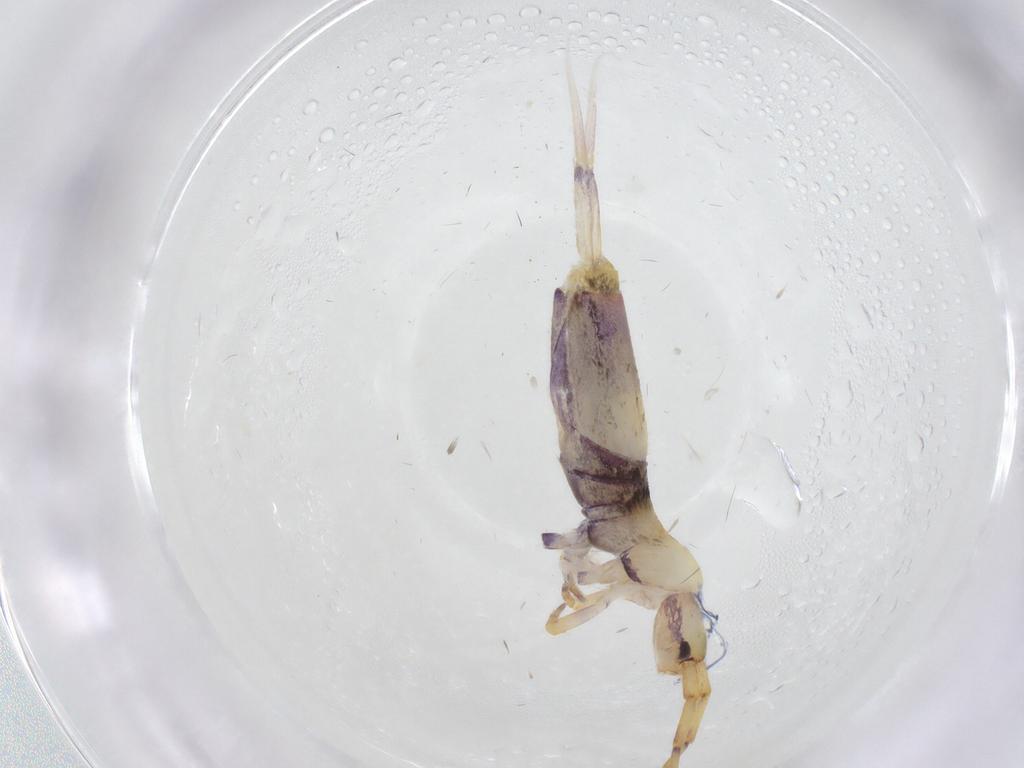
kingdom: Animalia
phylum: Arthropoda
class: Collembola
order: Entomobryomorpha
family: Entomobryidae
